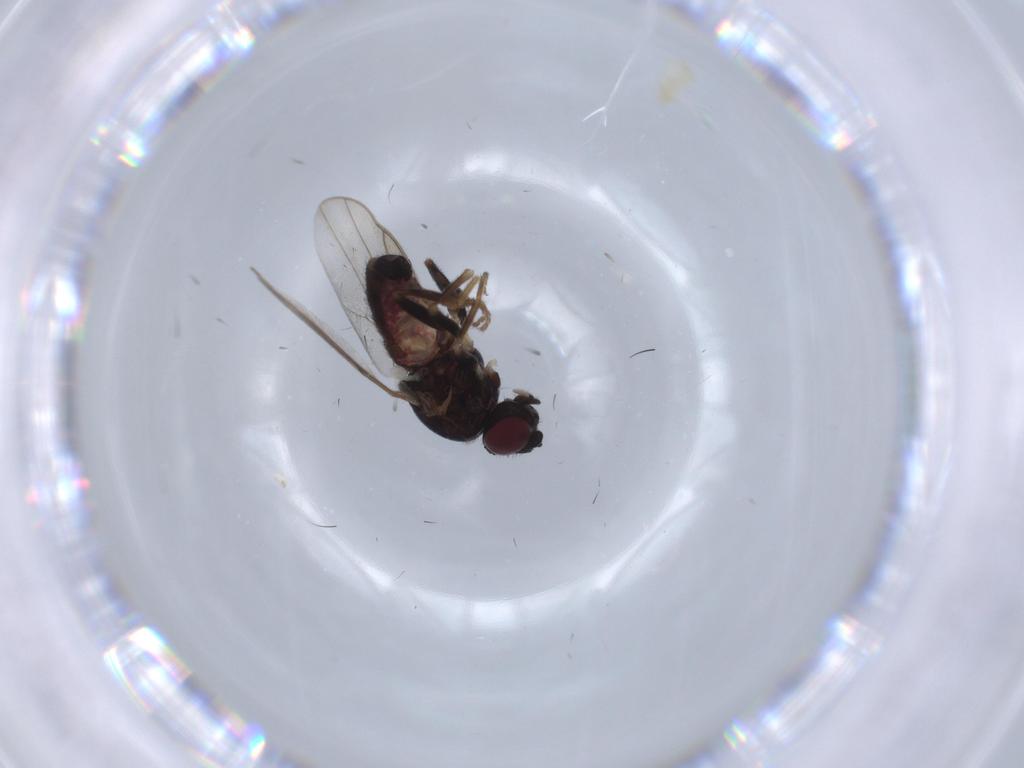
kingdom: Animalia
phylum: Arthropoda
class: Insecta
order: Diptera
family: Chloropidae
